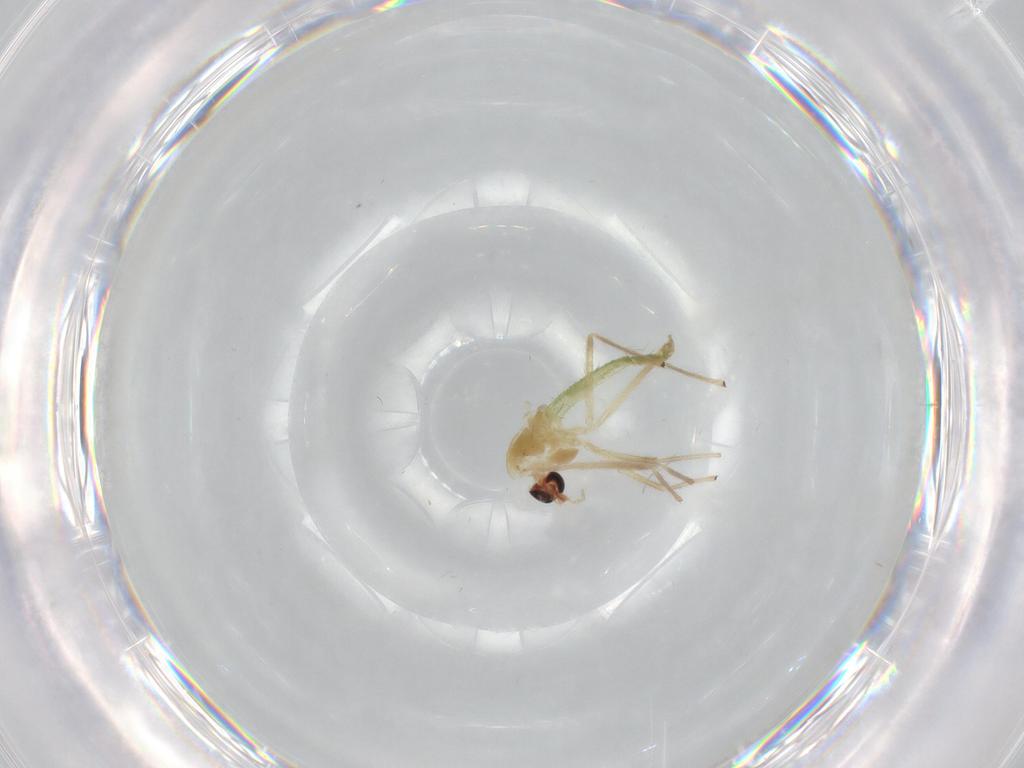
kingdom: Animalia
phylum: Arthropoda
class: Insecta
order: Diptera
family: Chironomidae
